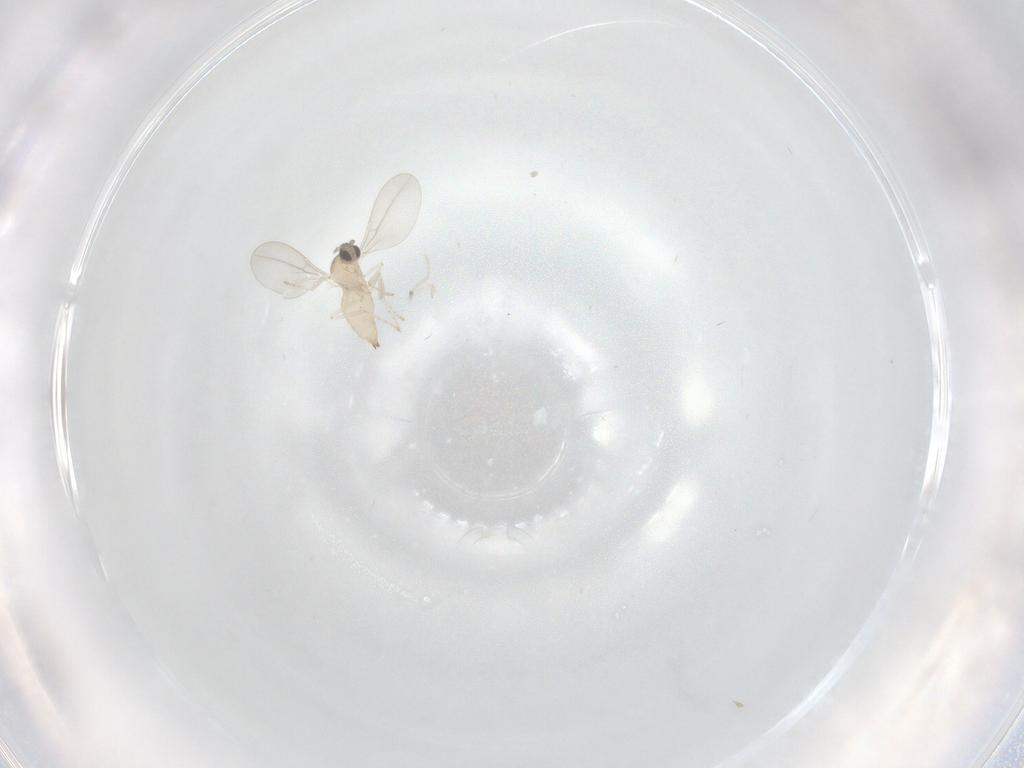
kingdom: Animalia
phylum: Arthropoda
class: Insecta
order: Diptera
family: Cecidomyiidae
